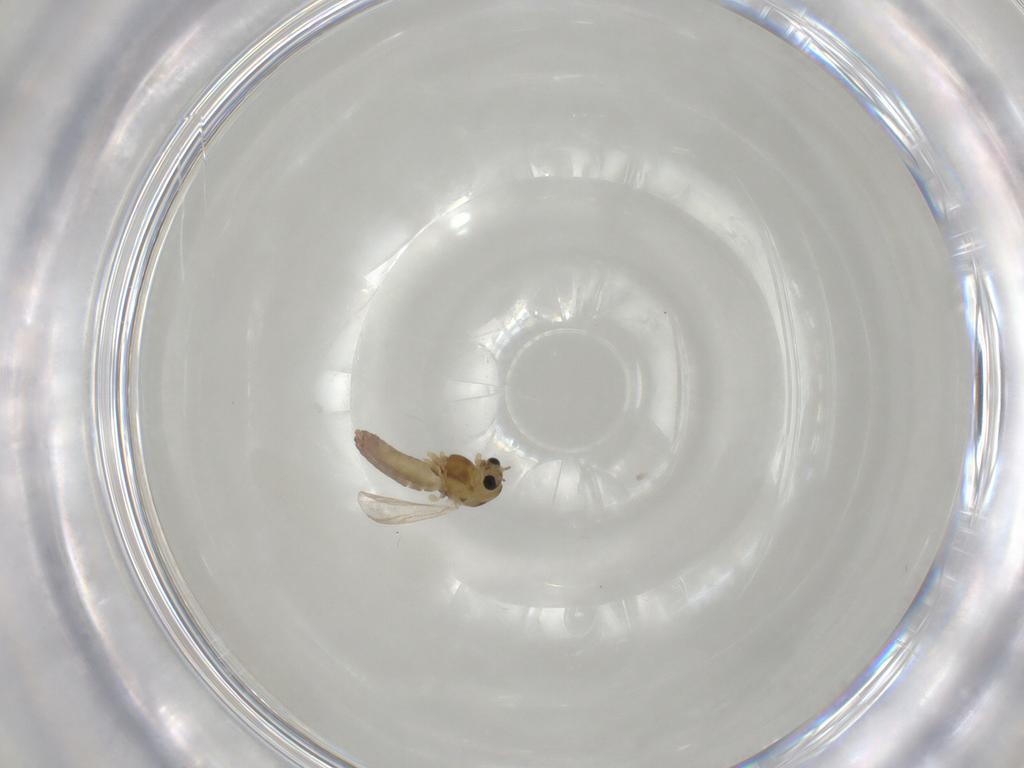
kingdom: Animalia
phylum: Arthropoda
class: Insecta
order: Diptera
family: Chironomidae
